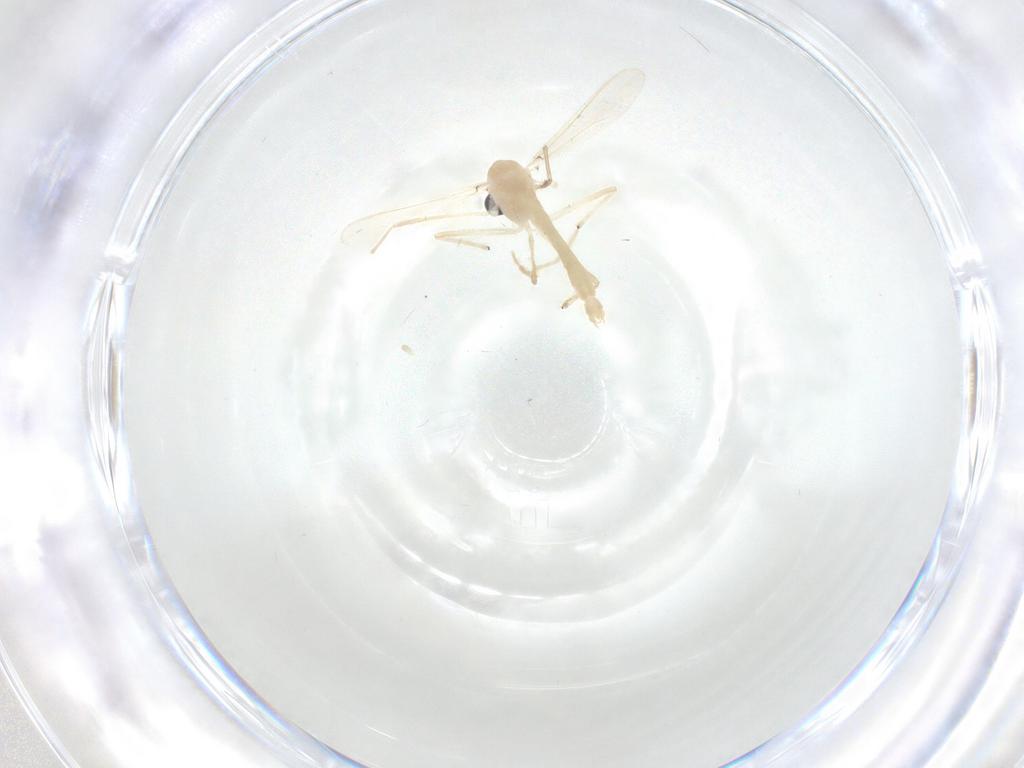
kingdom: Animalia
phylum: Arthropoda
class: Insecta
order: Diptera
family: Chironomidae
